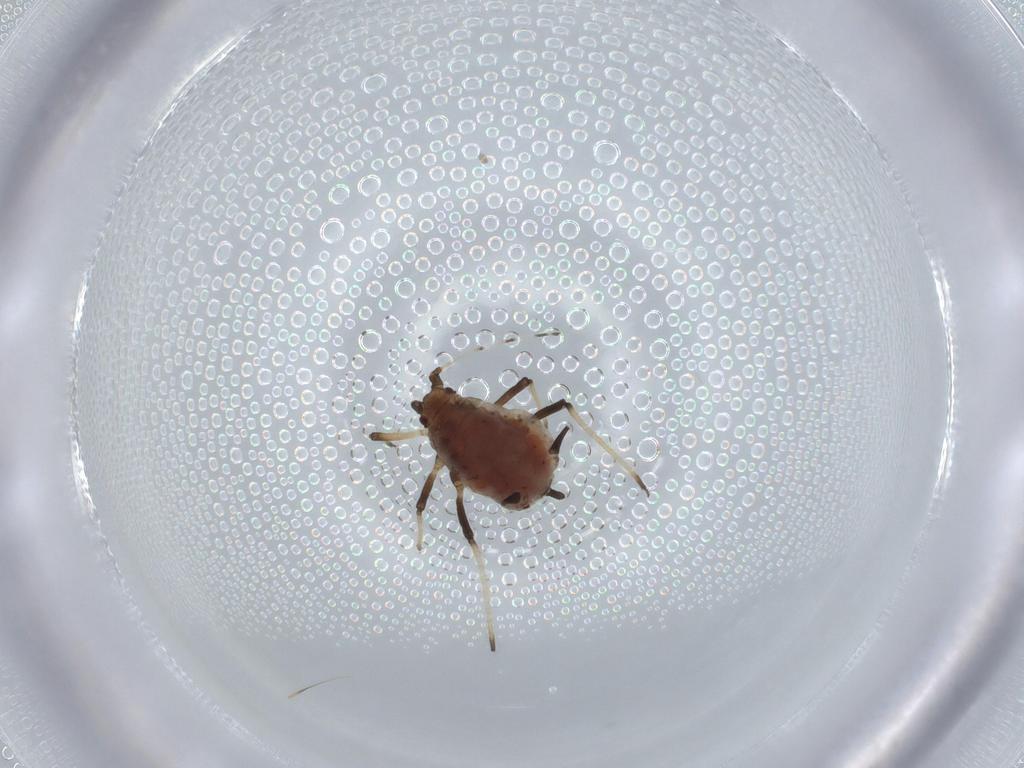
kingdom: Animalia
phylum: Arthropoda
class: Insecta
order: Hemiptera
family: Aphididae
